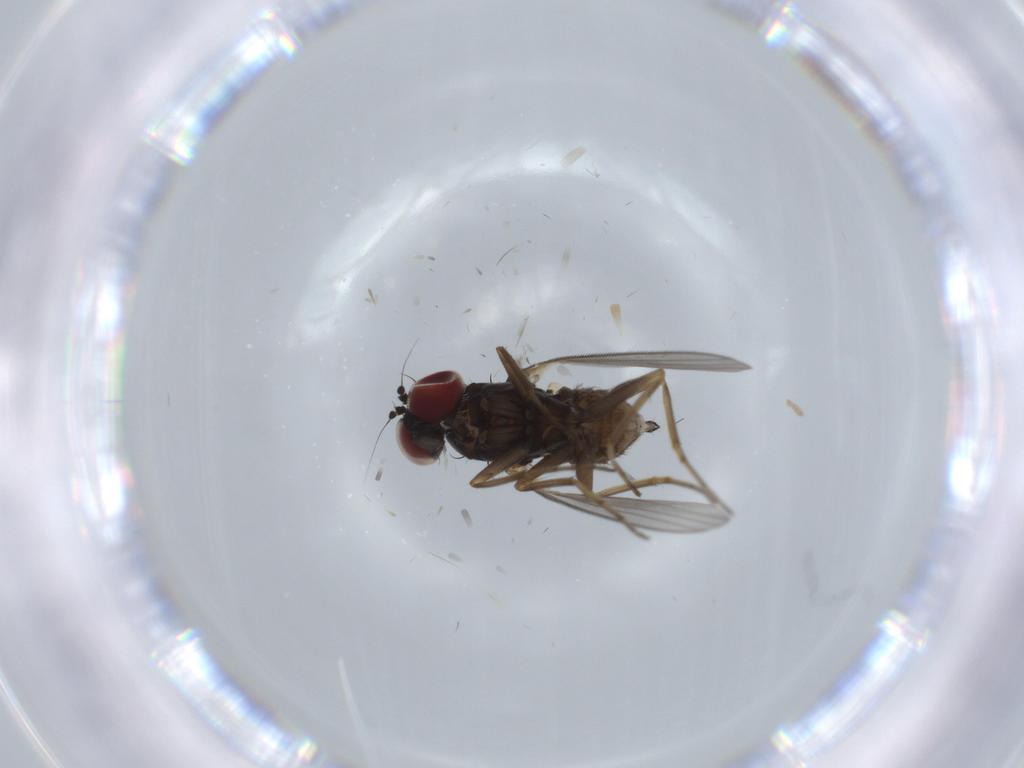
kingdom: Animalia
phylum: Arthropoda
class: Insecta
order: Diptera
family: Dolichopodidae
